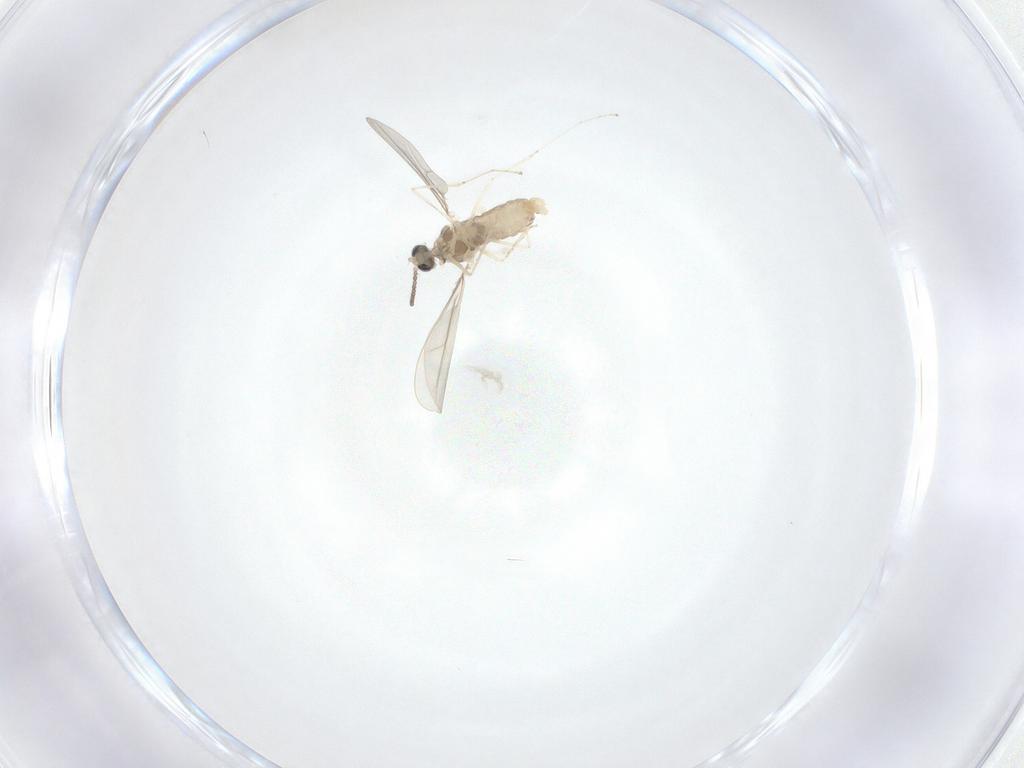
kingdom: Animalia
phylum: Arthropoda
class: Insecta
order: Diptera
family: Cecidomyiidae
